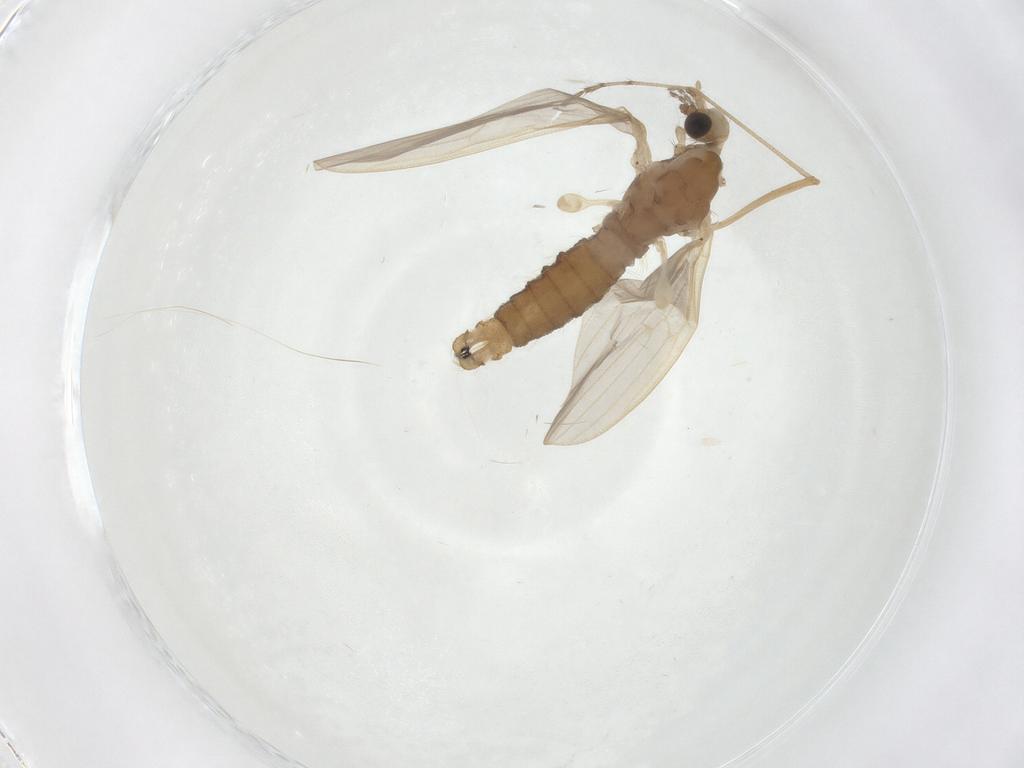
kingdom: Animalia
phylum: Arthropoda
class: Insecta
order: Diptera
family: Limoniidae
